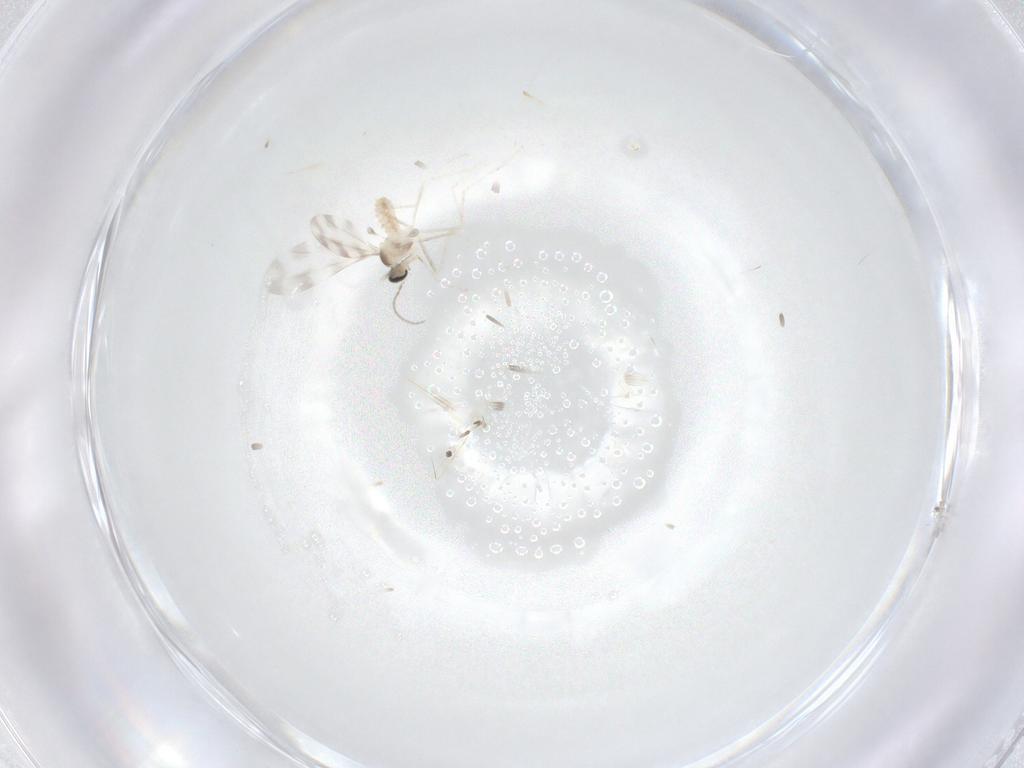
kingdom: Animalia
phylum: Arthropoda
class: Insecta
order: Diptera
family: Cecidomyiidae
